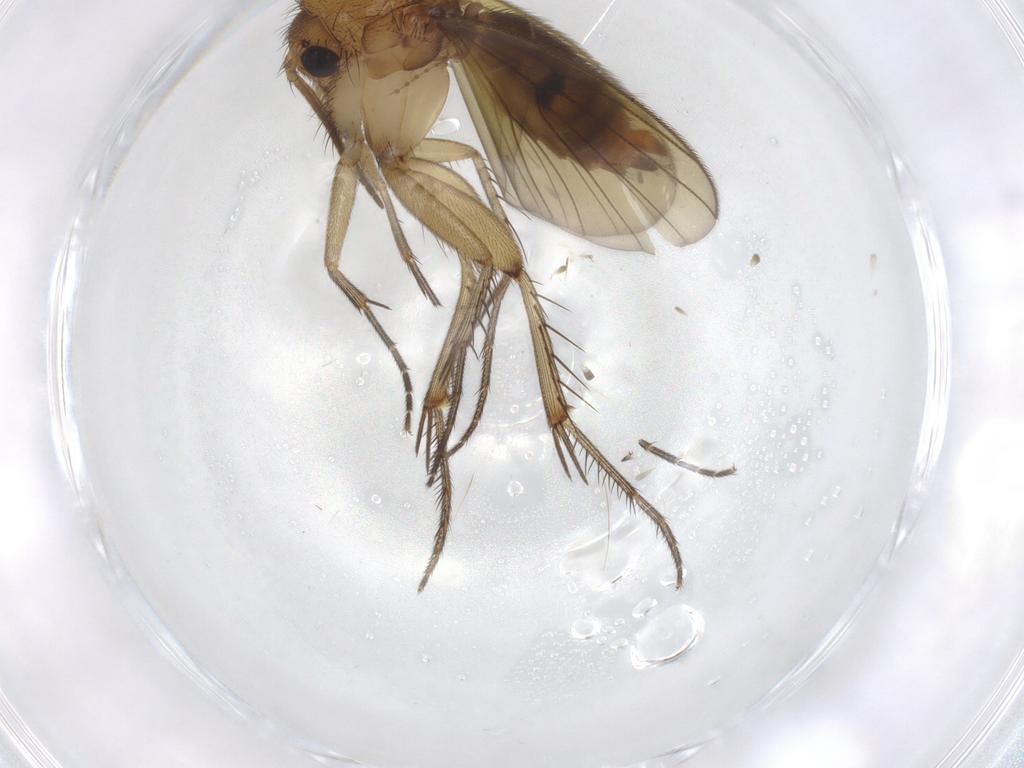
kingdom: Animalia
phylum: Arthropoda
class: Insecta
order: Diptera
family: Mycetophilidae
